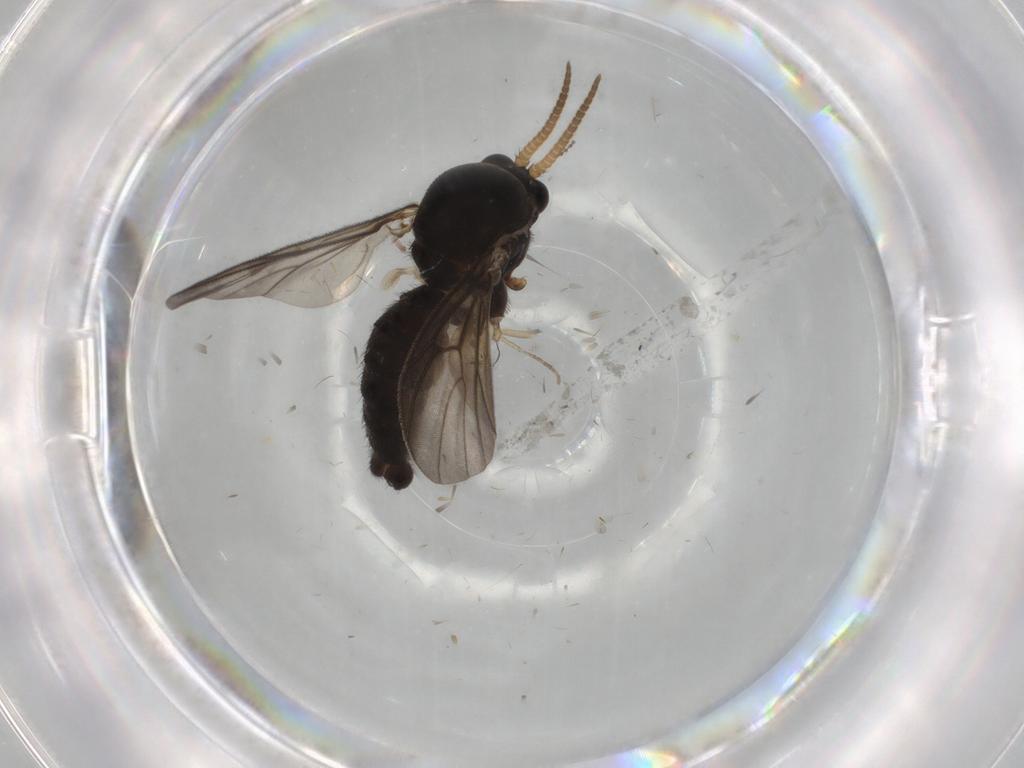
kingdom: Animalia
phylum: Arthropoda
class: Insecta
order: Diptera
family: Psychodidae
